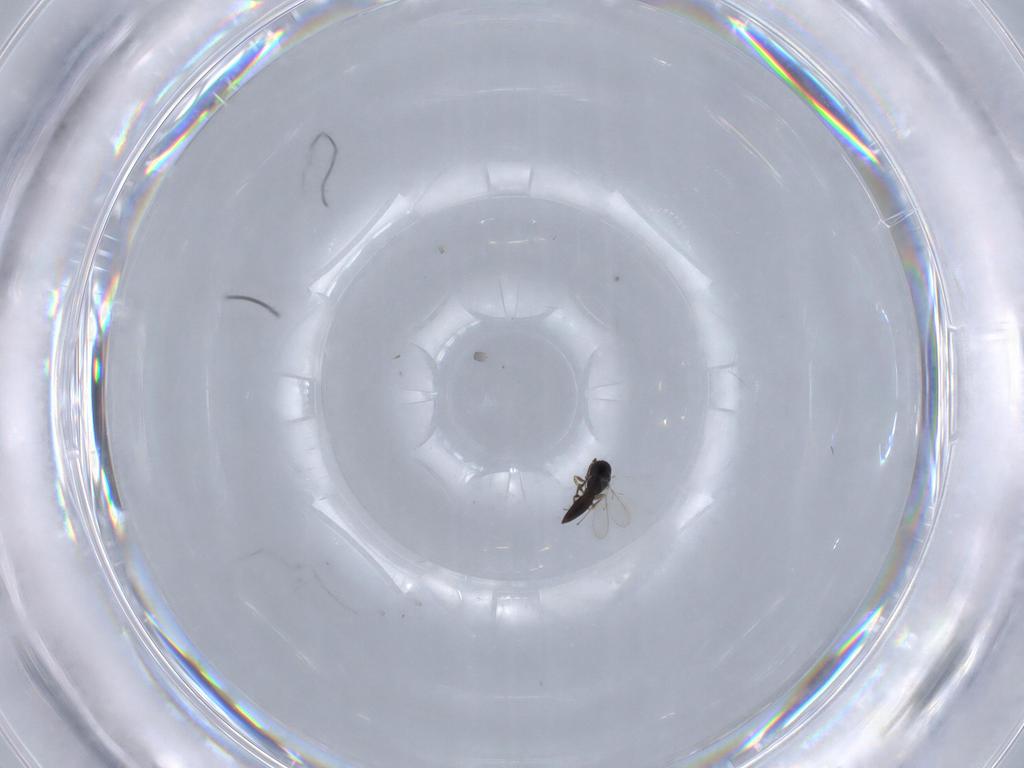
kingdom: Animalia
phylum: Arthropoda
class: Insecta
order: Hymenoptera
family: Scelionidae
